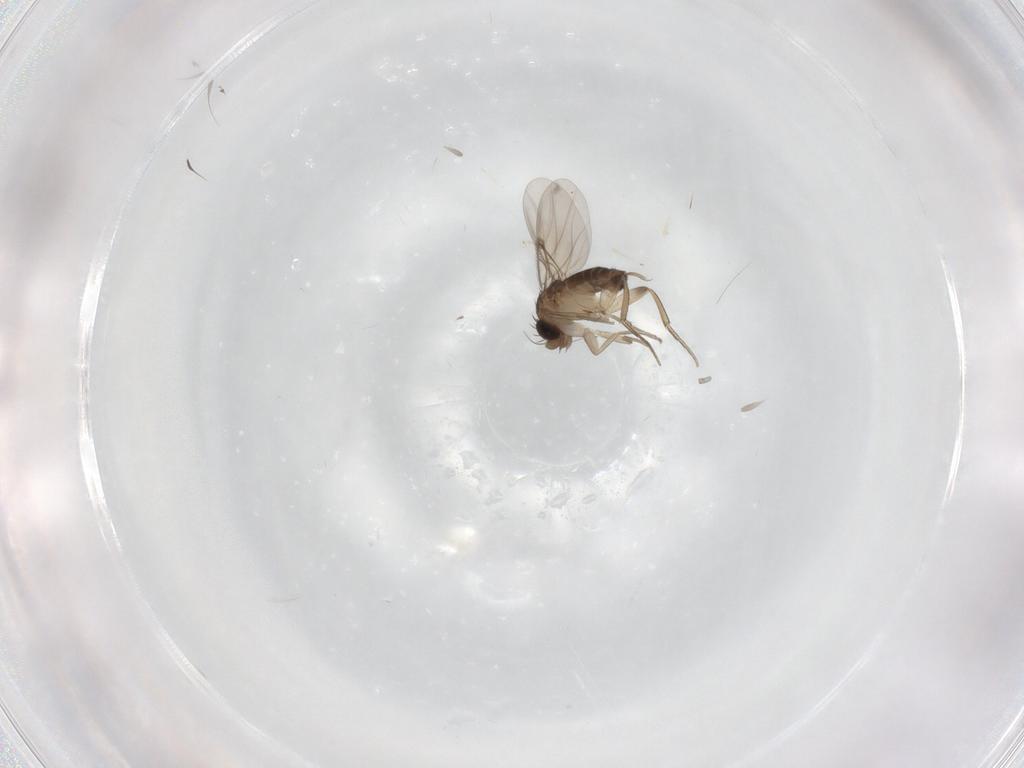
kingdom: Animalia
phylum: Arthropoda
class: Insecta
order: Diptera
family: Phoridae
